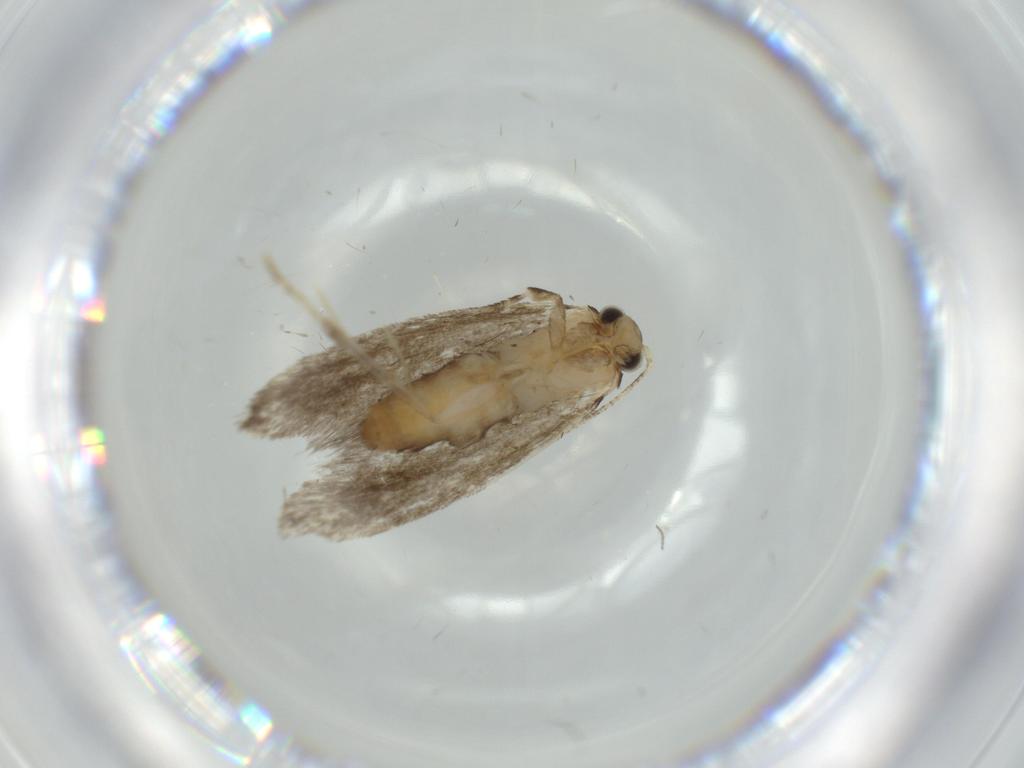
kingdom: Animalia
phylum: Arthropoda
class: Insecta
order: Lepidoptera
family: Tineidae
